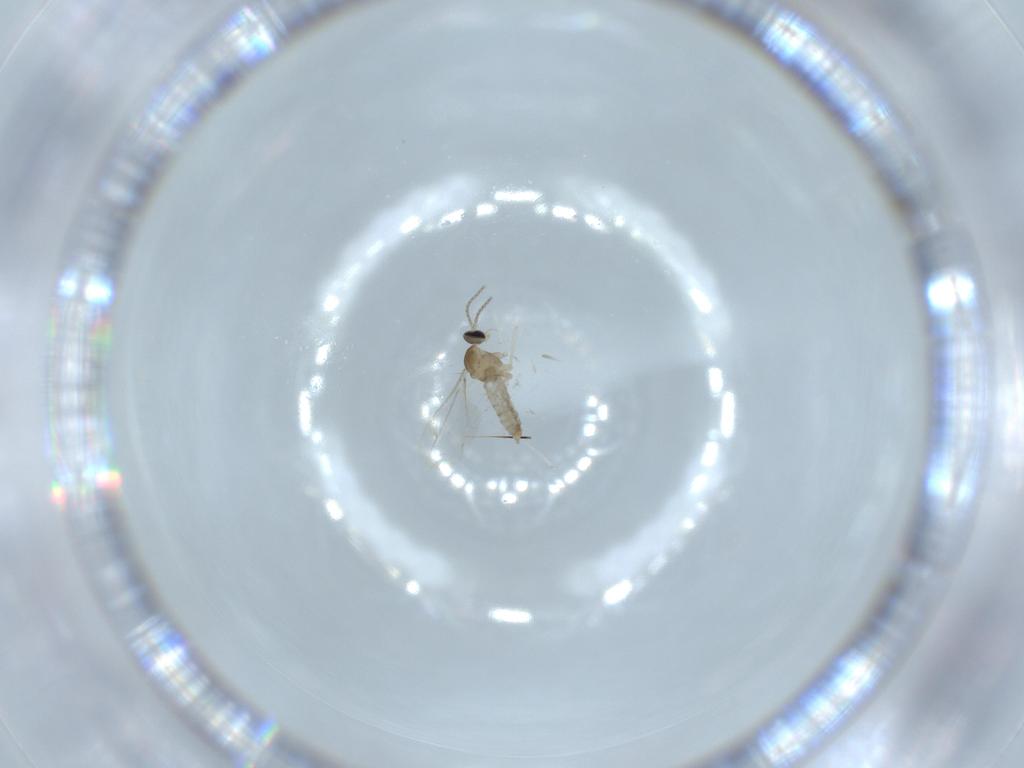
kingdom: Animalia
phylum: Arthropoda
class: Insecta
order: Diptera
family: Cecidomyiidae
